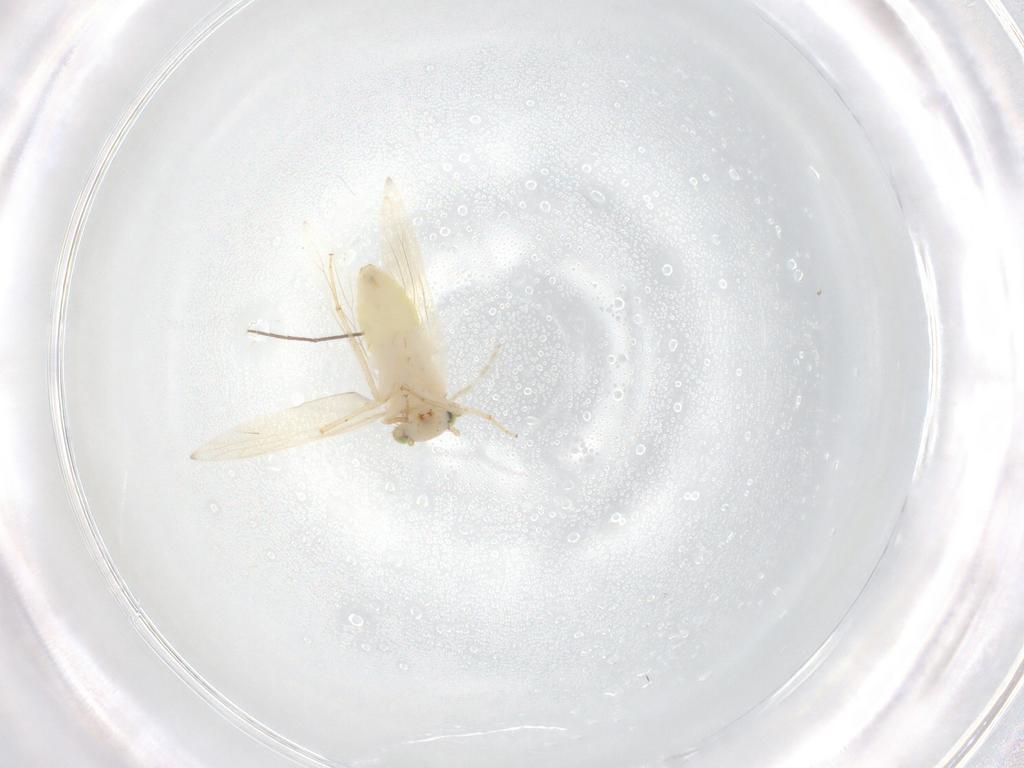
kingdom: Animalia
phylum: Arthropoda
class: Insecta
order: Psocodea
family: Lepidopsocidae
